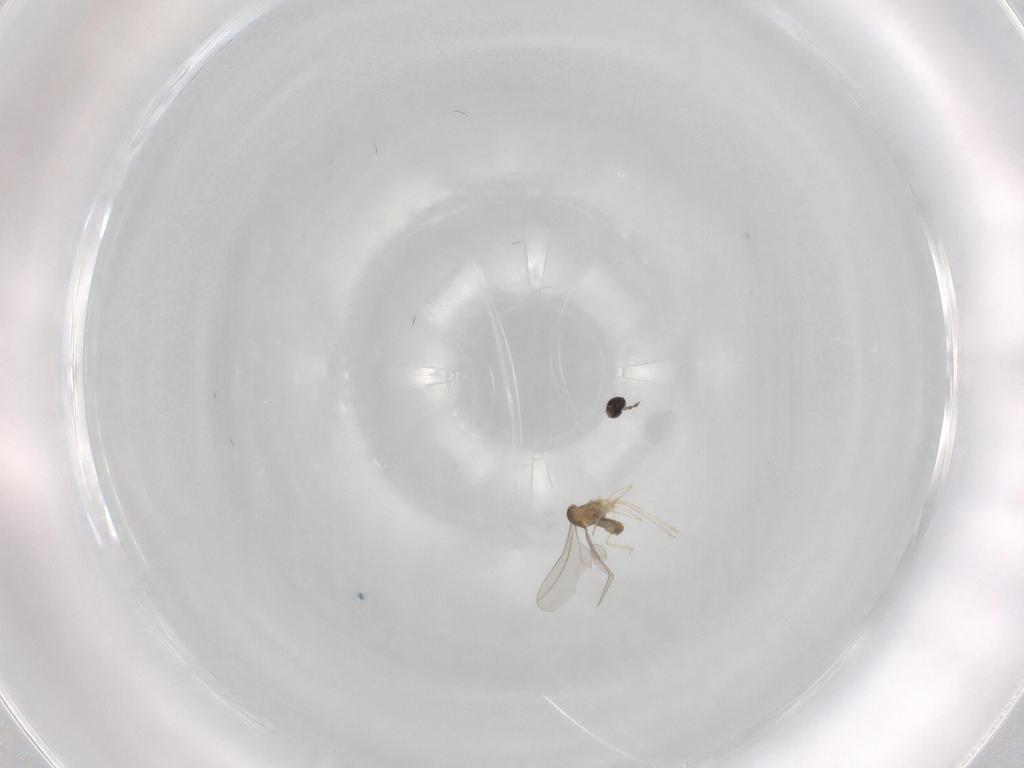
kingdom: Animalia
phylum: Arthropoda
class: Insecta
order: Diptera
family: Cecidomyiidae
